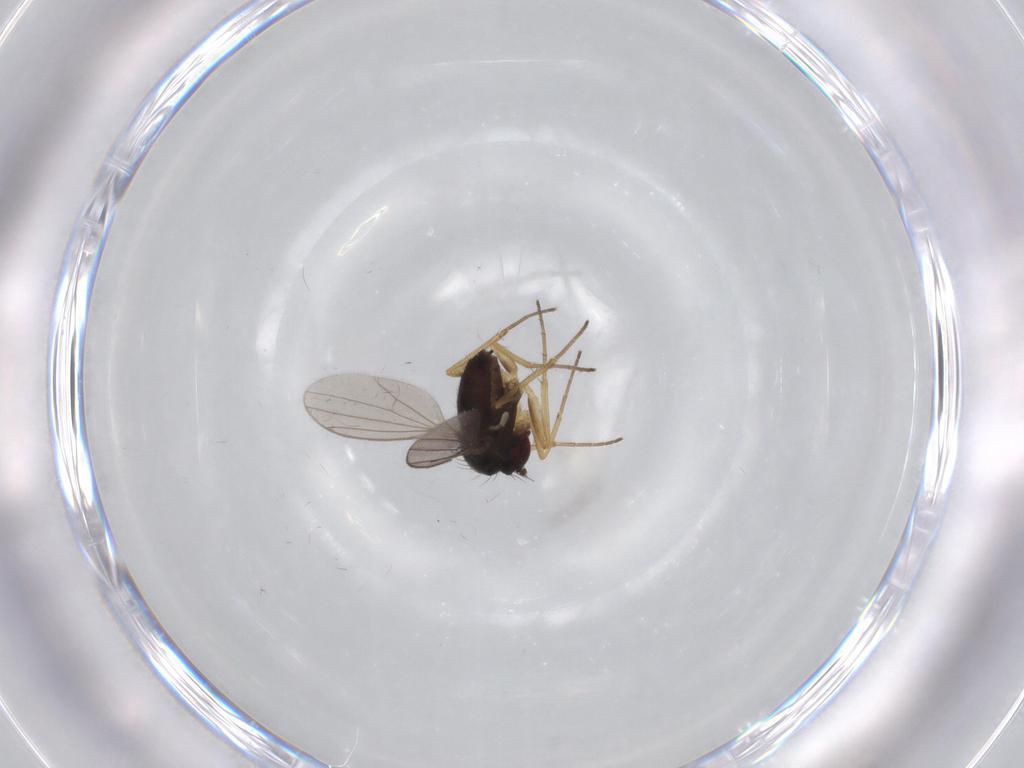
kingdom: Animalia
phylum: Arthropoda
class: Insecta
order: Diptera
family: Dolichopodidae
